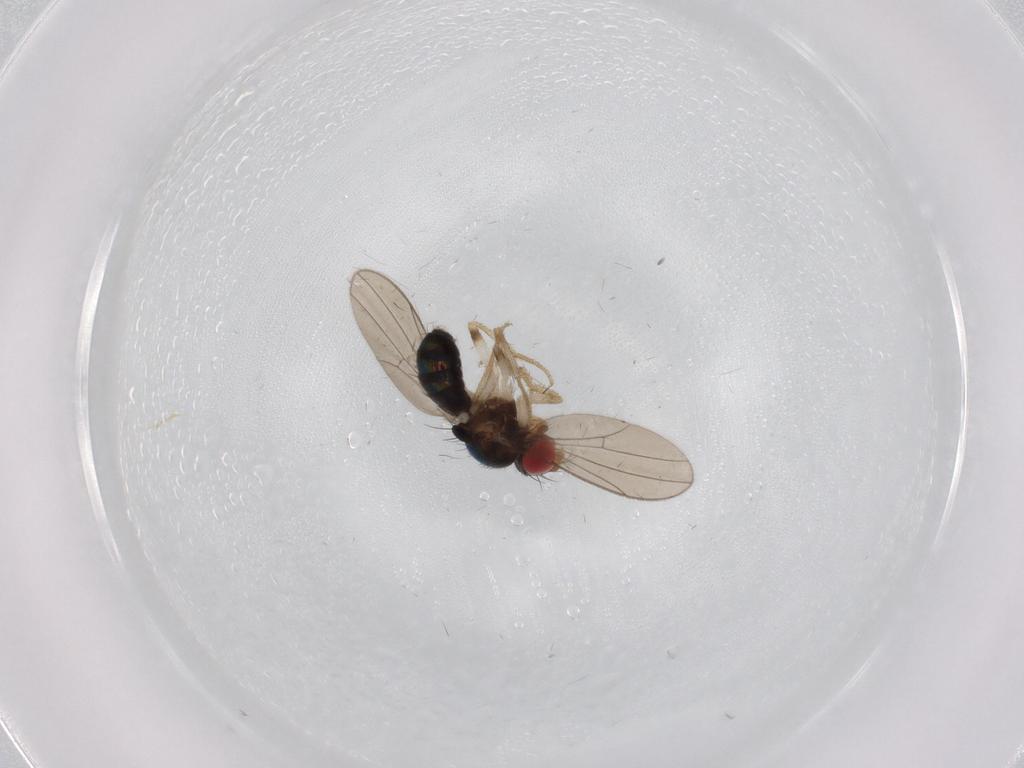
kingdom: Animalia
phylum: Arthropoda
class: Insecta
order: Diptera
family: Drosophilidae
